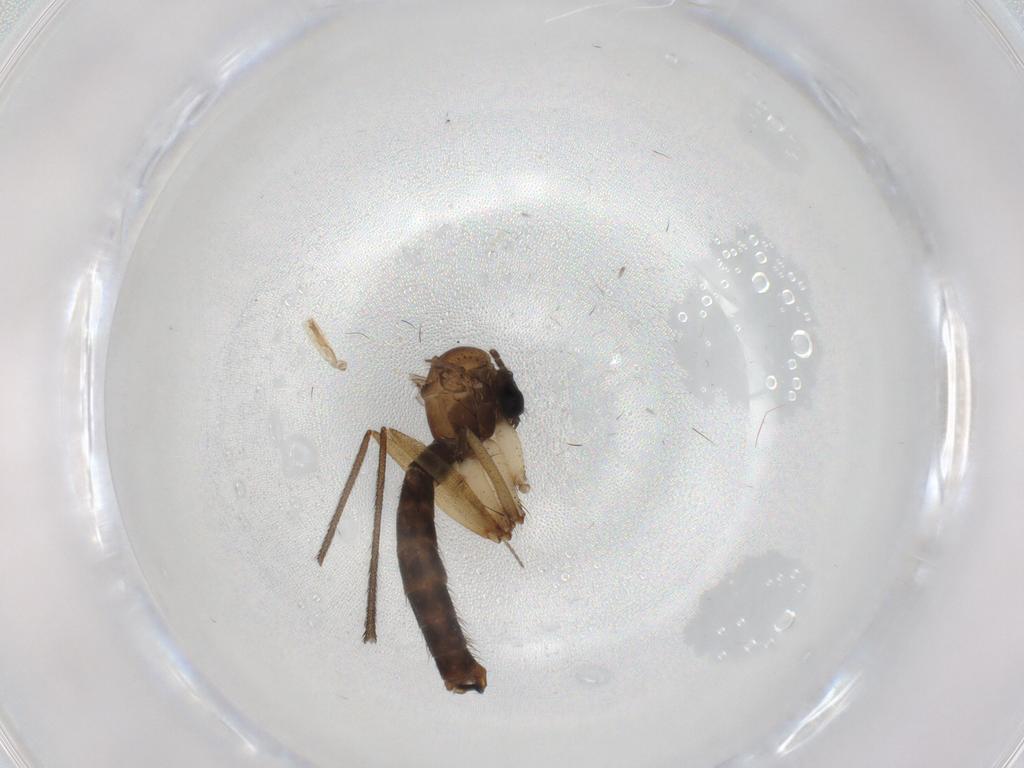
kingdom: Animalia
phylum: Arthropoda
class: Insecta
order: Diptera
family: Ditomyiidae
